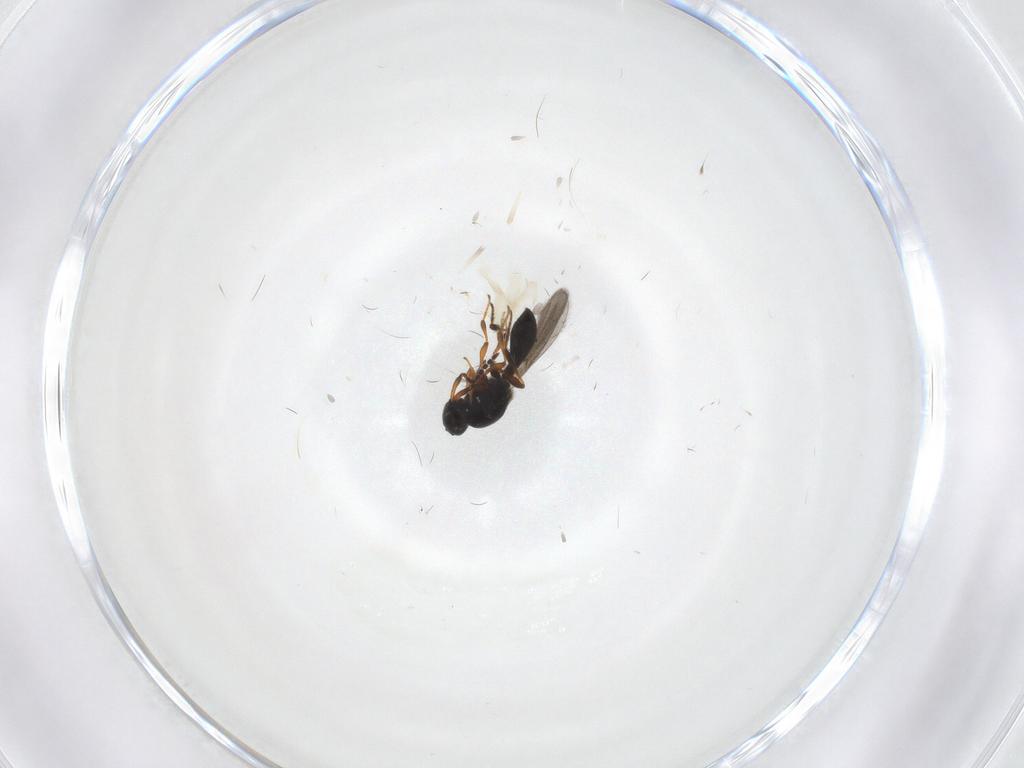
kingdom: Animalia
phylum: Arthropoda
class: Insecta
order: Hymenoptera
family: Platygastridae
